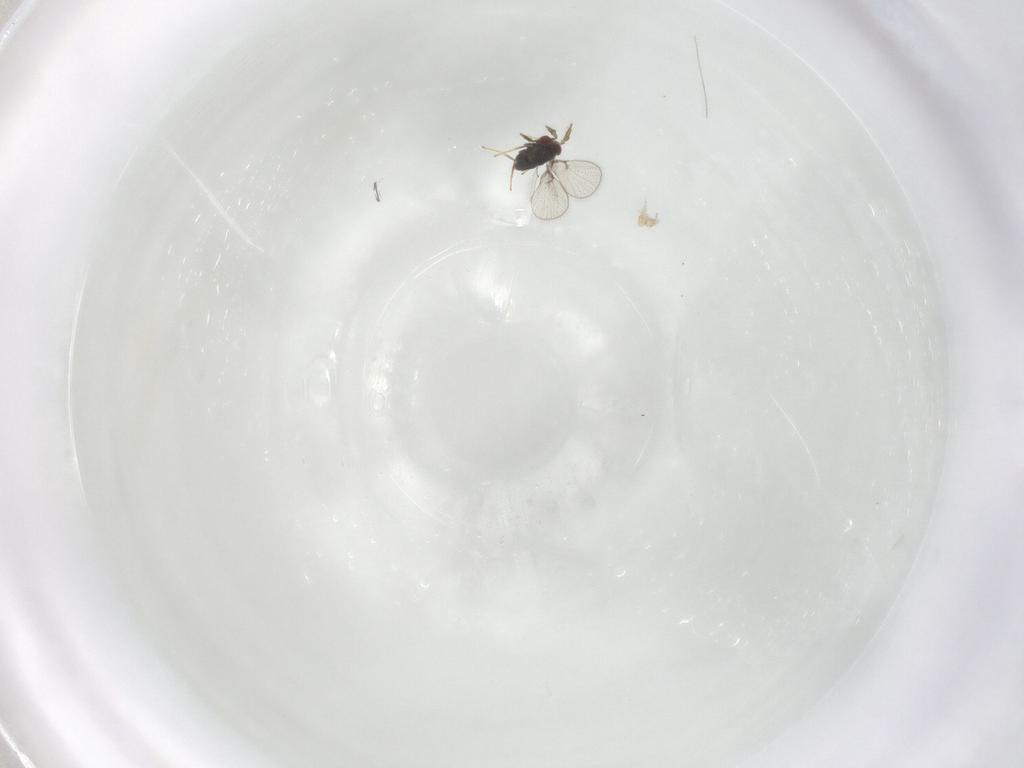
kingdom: Animalia
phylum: Arthropoda
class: Insecta
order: Hymenoptera
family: Trichogrammatidae
